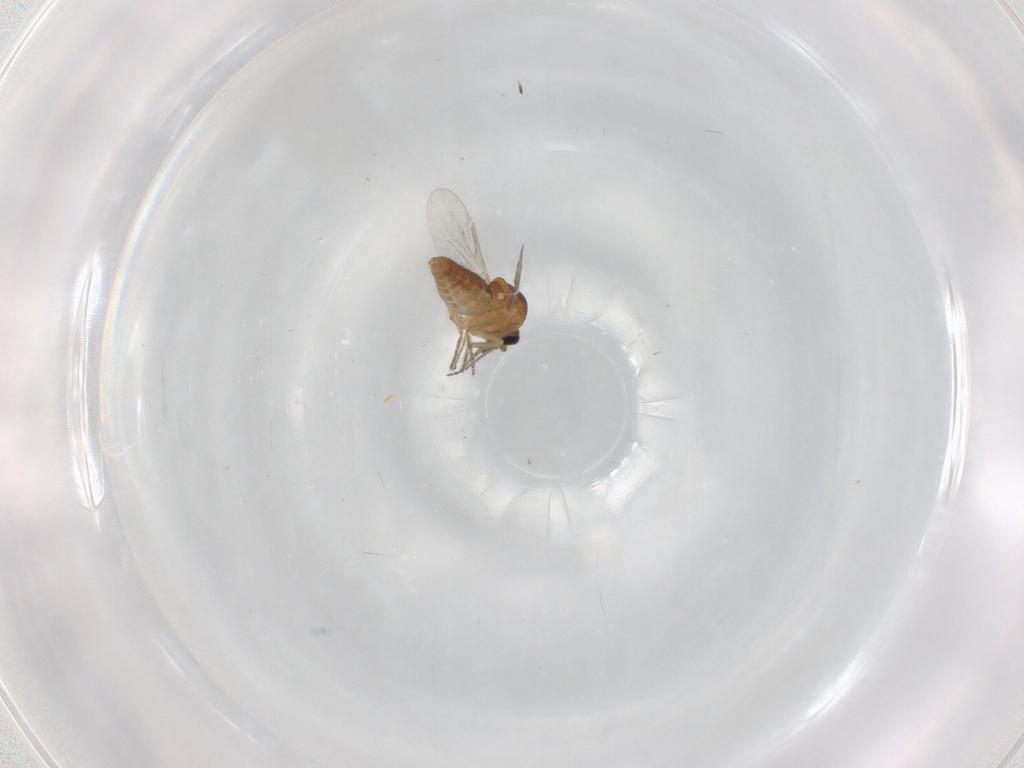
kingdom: Animalia
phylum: Arthropoda
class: Insecta
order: Diptera
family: Ceratopogonidae
